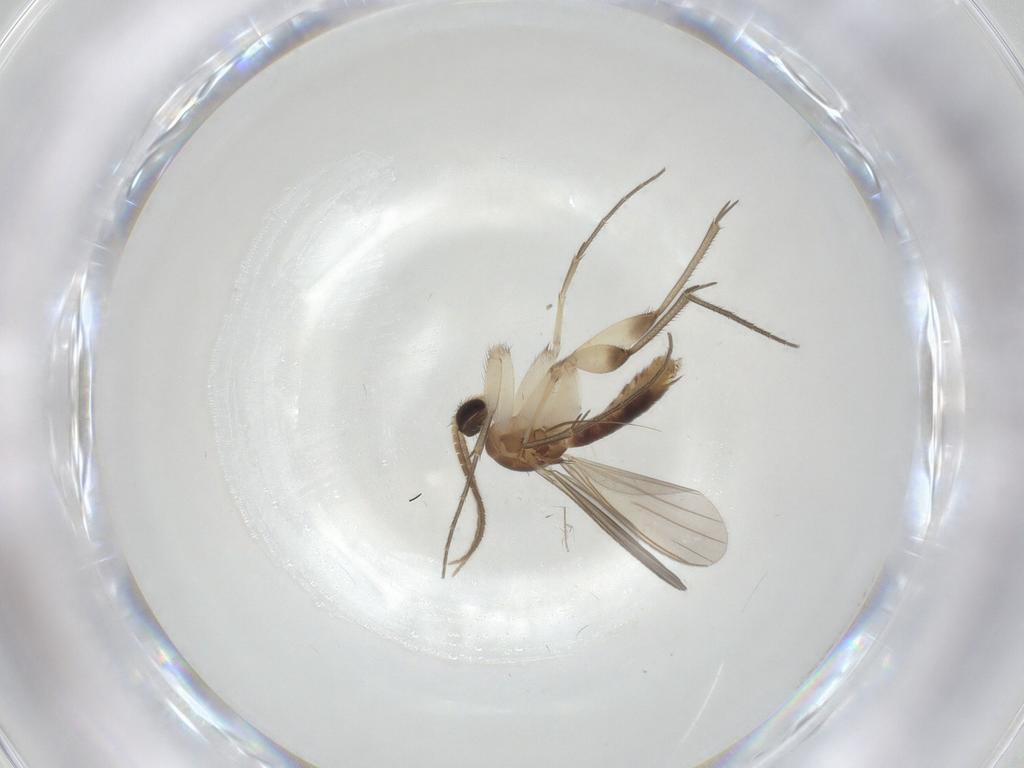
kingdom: Animalia
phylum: Arthropoda
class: Insecta
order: Diptera
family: Mycetophilidae
